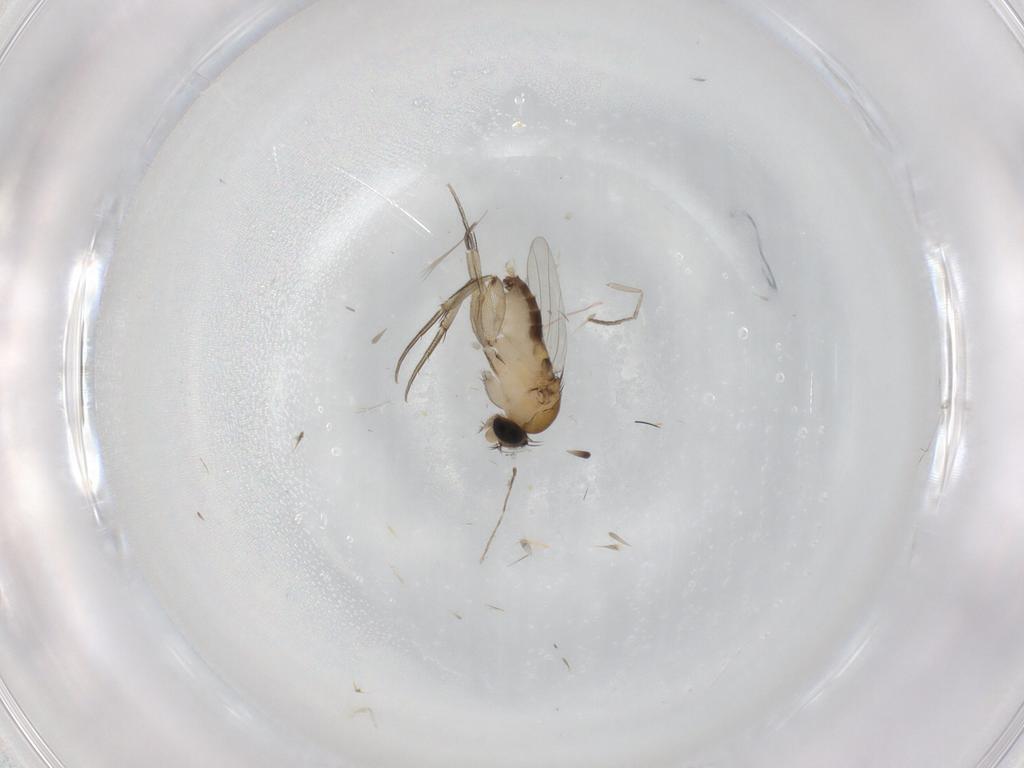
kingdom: Animalia
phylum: Arthropoda
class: Insecta
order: Diptera
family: Phoridae
